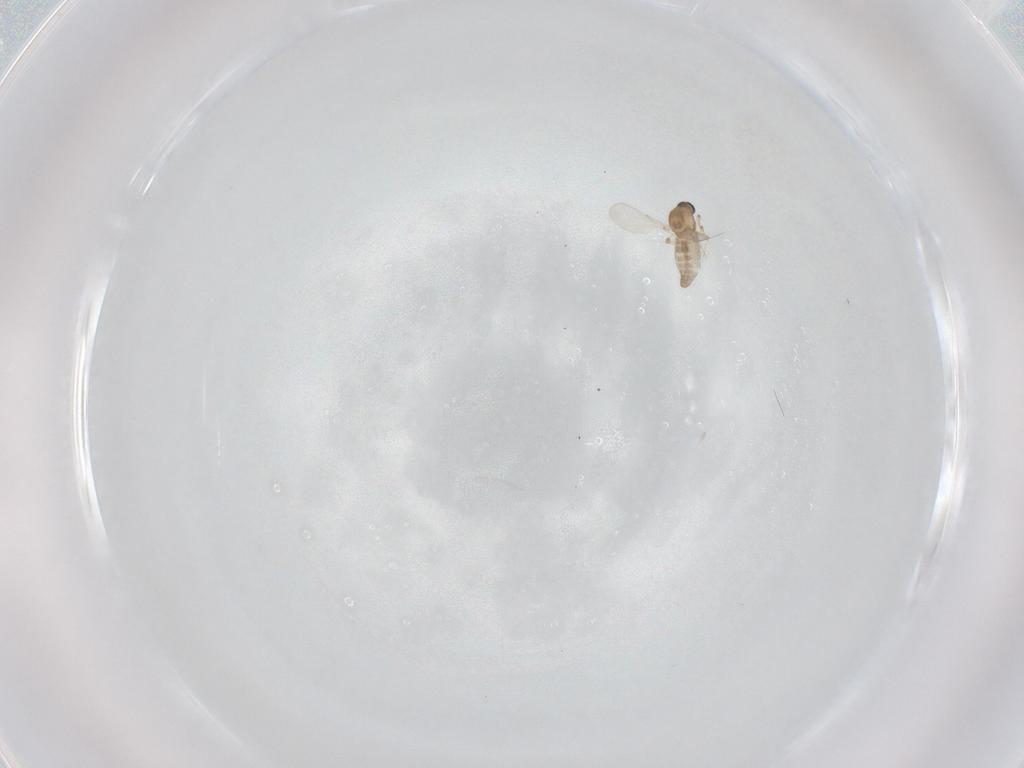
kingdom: Animalia
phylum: Arthropoda
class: Insecta
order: Diptera
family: Ceratopogonidae
